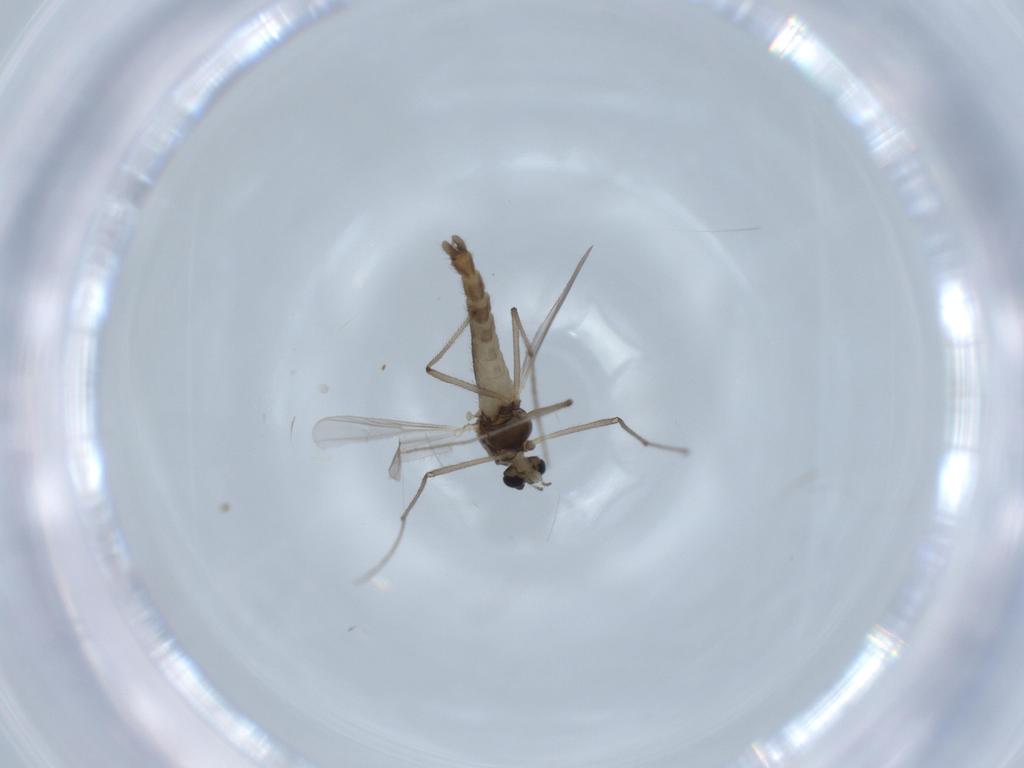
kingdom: Animalia
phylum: Arthropoda
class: Insecta
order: Diptera
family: Chironomidae
